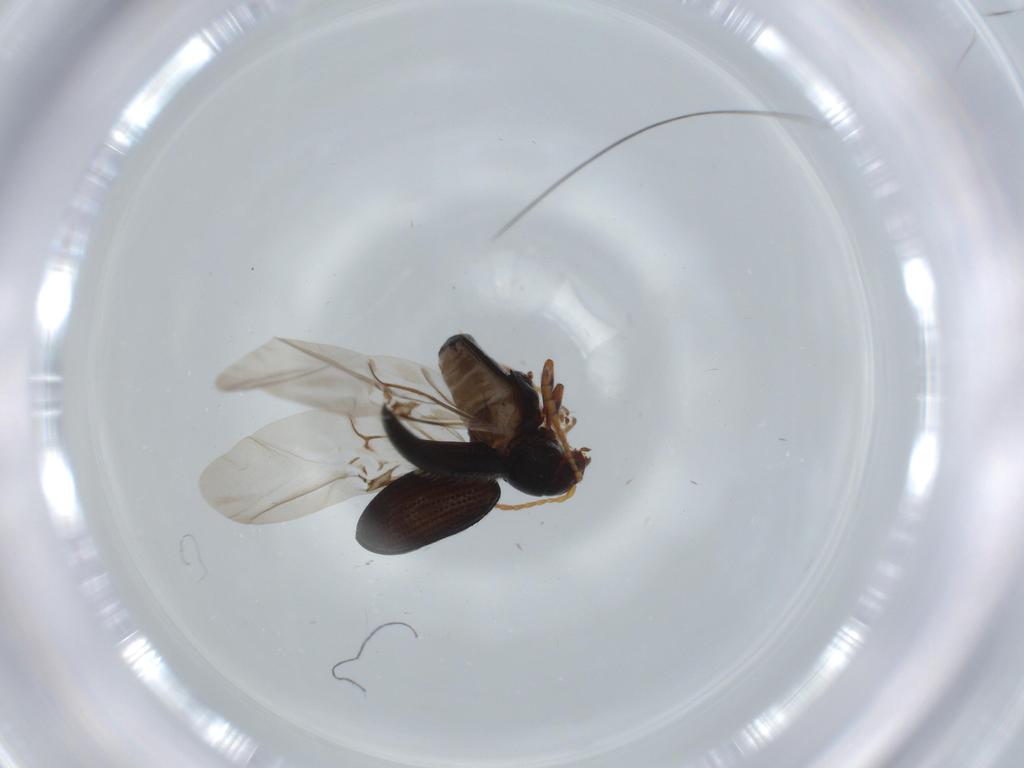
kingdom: Animalia
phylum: Arthropoda
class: Insecta
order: Coleoptera
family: Chrysomelidae
